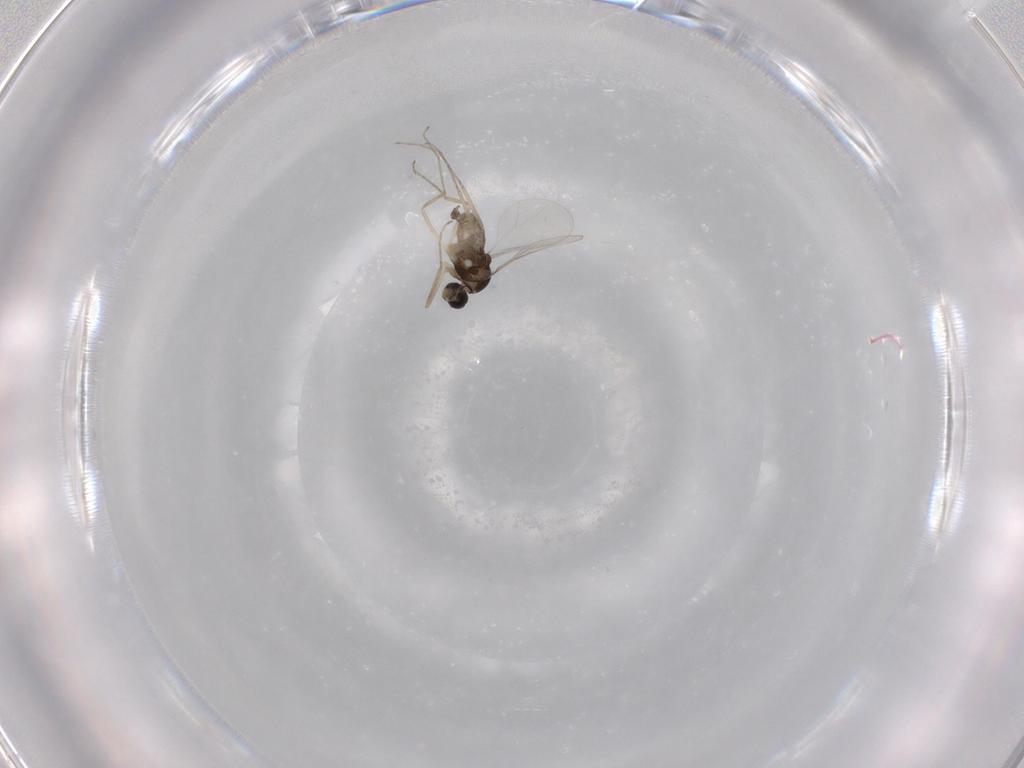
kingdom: Animalia
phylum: Arthropoda
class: Insecta
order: Diptera
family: Cecidomyiidae
